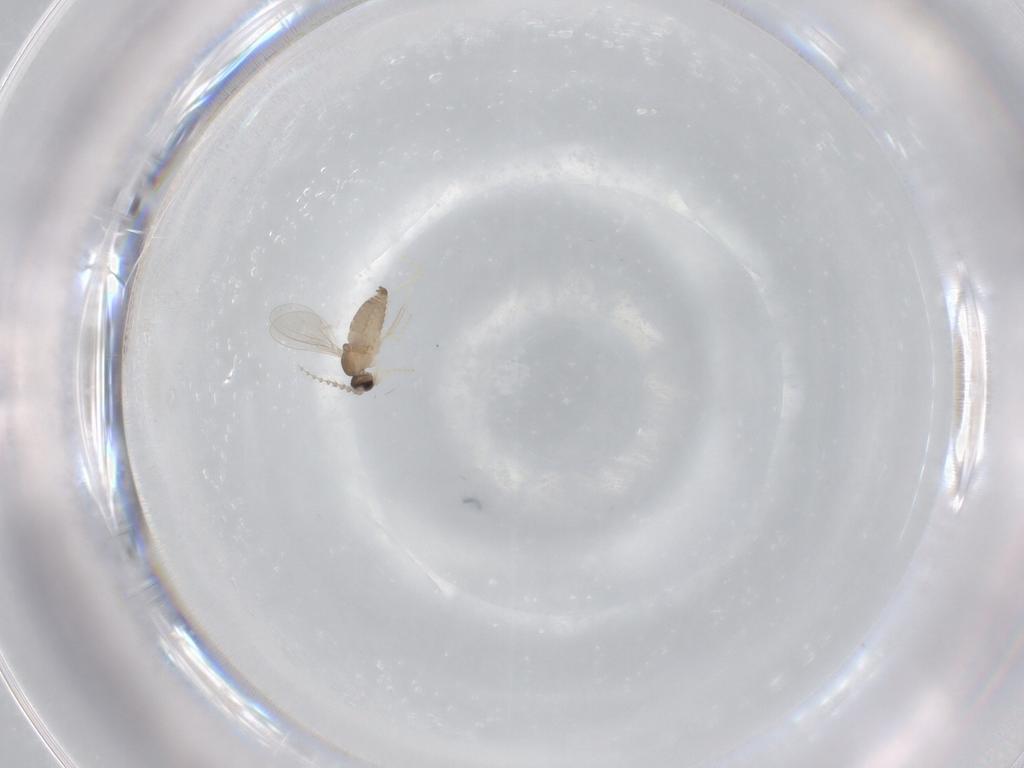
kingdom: Animalia
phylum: Arthropoda
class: Insecta
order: Diptera
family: Cecidomyiidae
